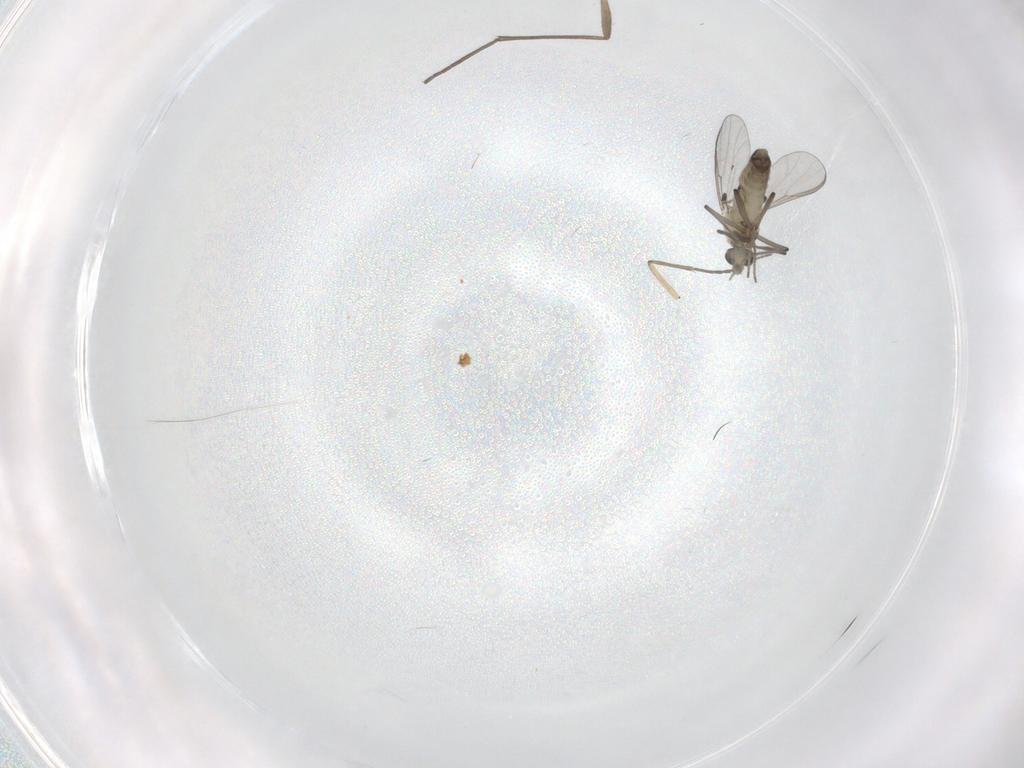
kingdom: Animalia
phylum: Arthropoda
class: Insecta
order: Diptera
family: Chironomidae
